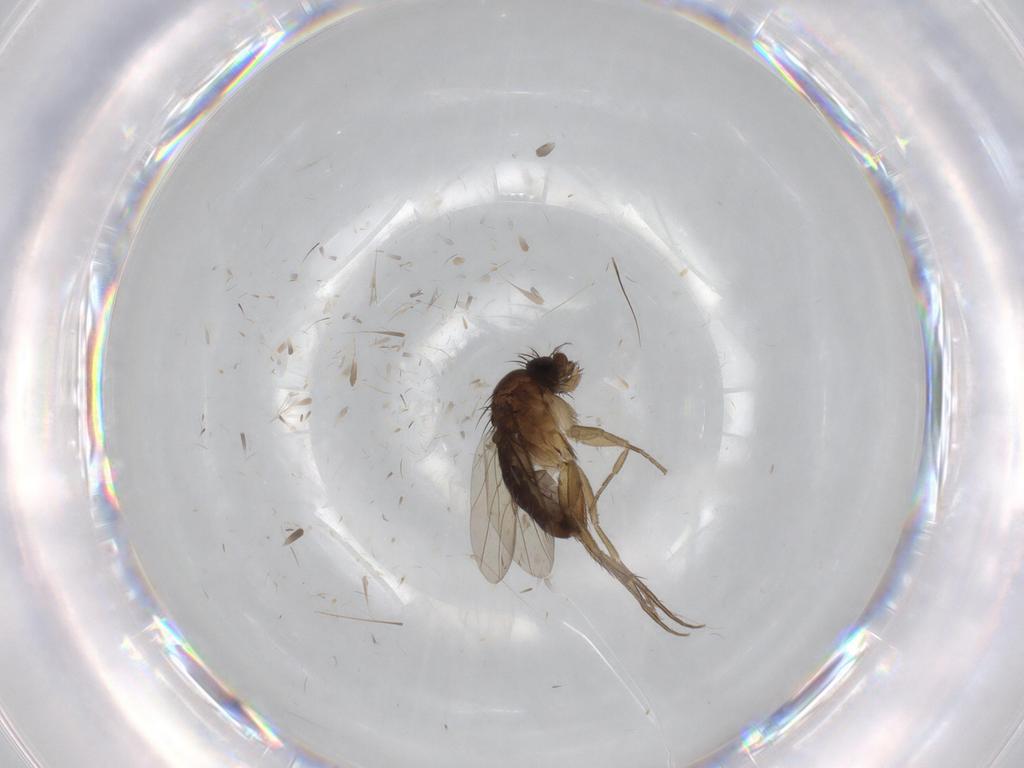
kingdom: Animalia
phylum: Arthropoda
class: Insecta
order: Diptera
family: Phoridae
